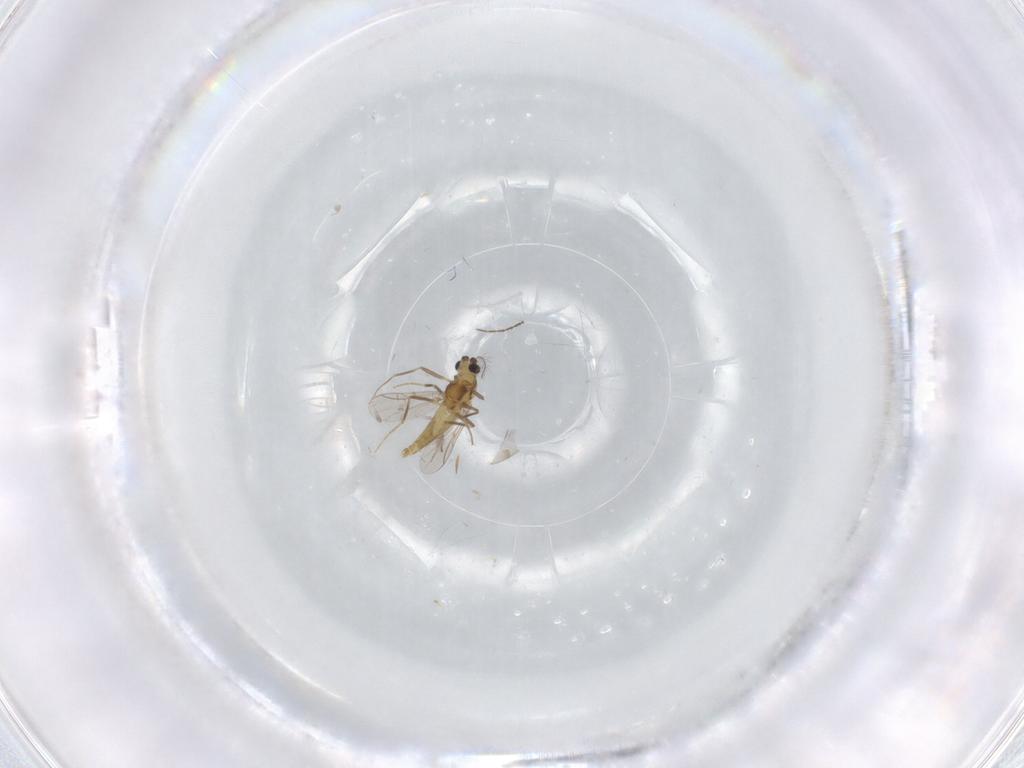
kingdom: Animalia
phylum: Arthropoda
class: Insecta
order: Diptera
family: Chironomidae
